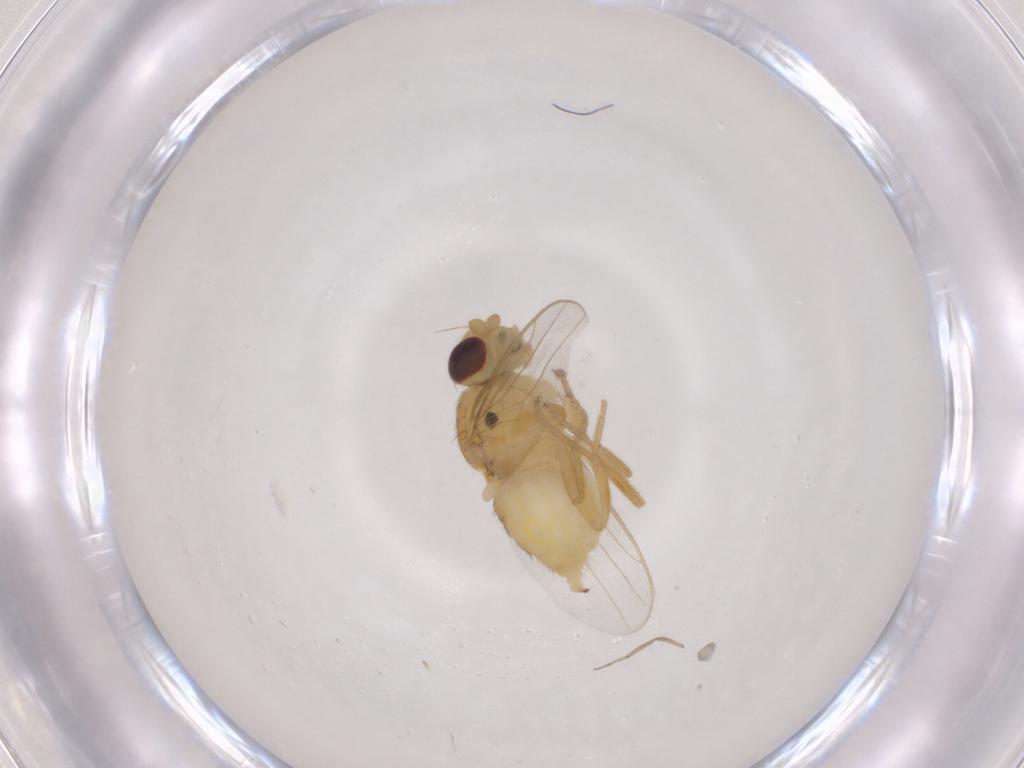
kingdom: Animalia
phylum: Arthropoda
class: Insecta
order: Diptera
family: Chloropidae
